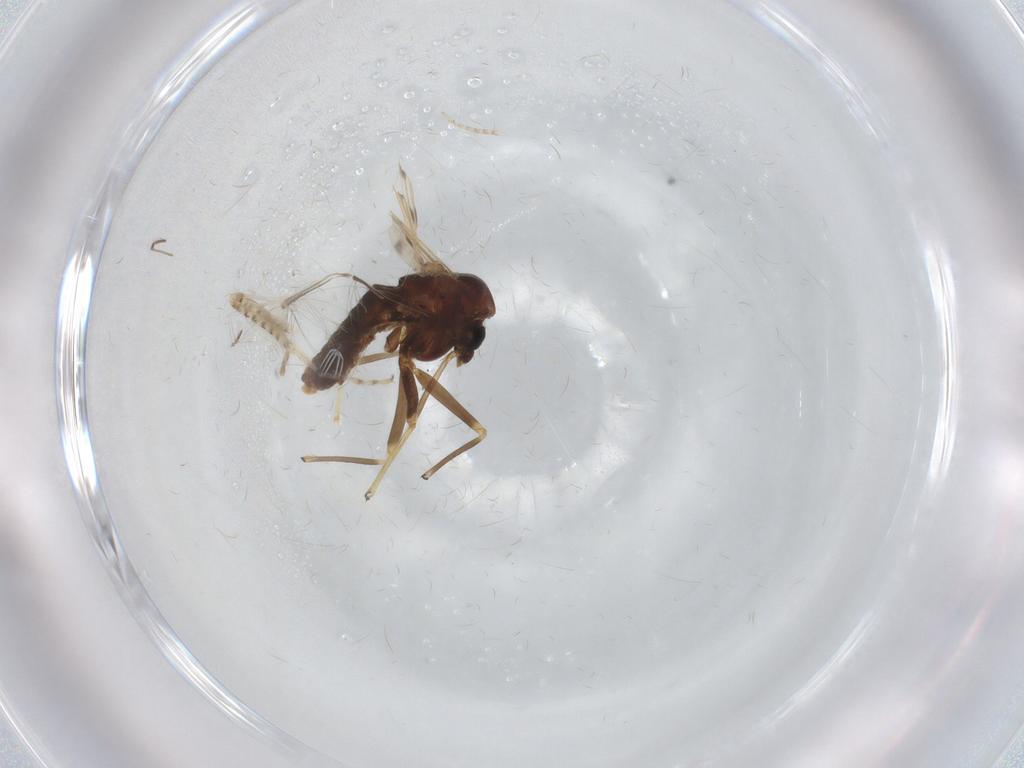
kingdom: Animalia
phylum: Arthropoda
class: Insecta
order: Diptera
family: Chironomidae
